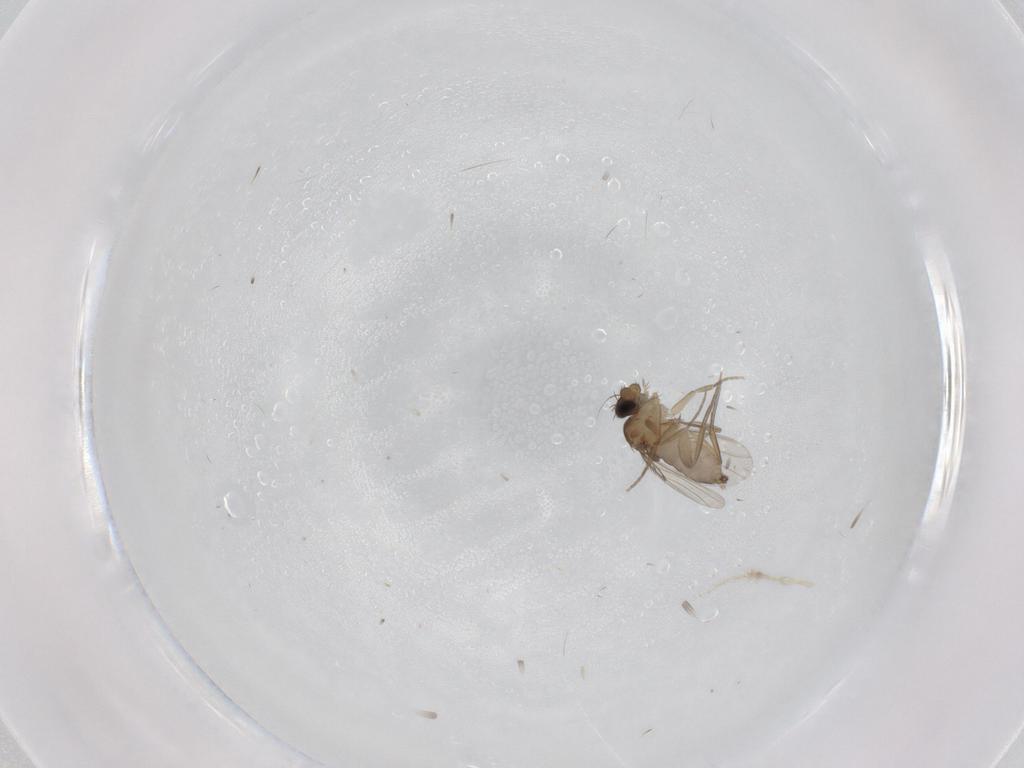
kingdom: Animalia
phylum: Arthropoda
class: Insecta
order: Diptera
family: Phoridae
